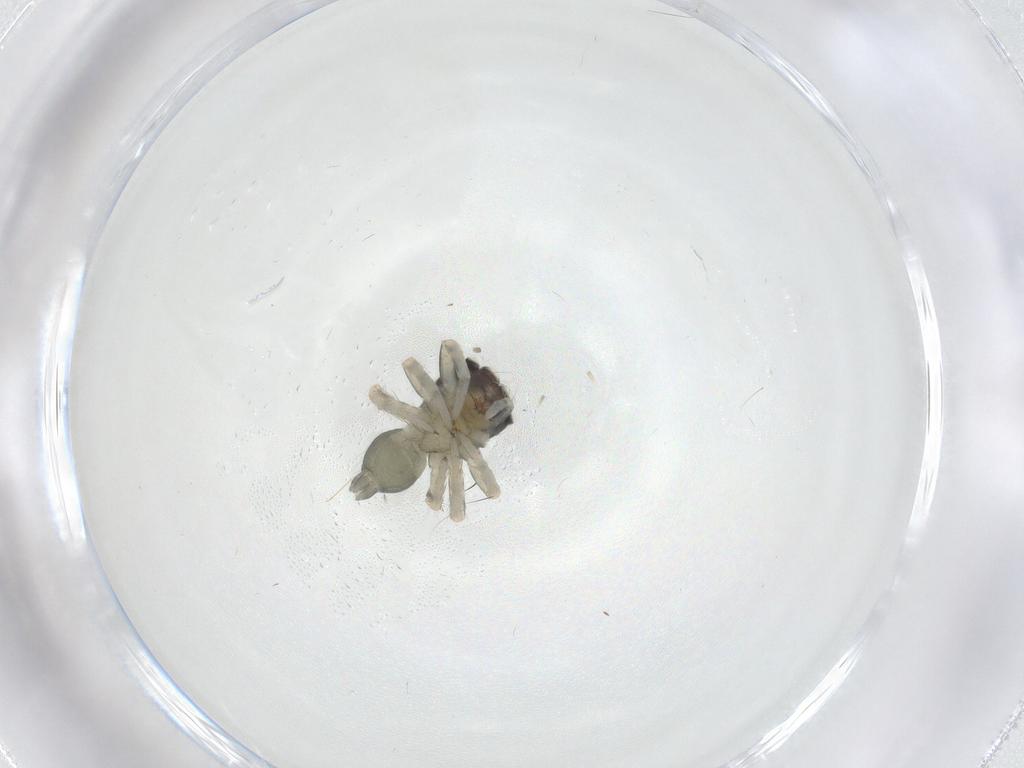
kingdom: Animalia
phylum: Arthropoda
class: Arachnida
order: Araneae
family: Salticidae
